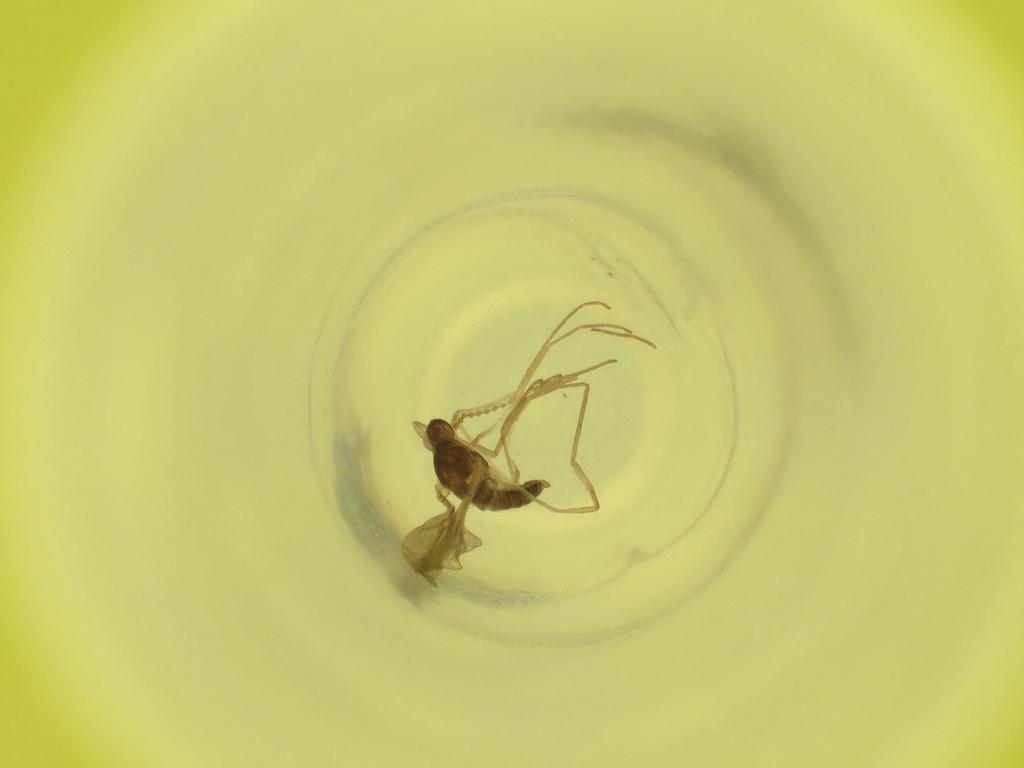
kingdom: Animalia
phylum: Arthropoda
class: Insecta
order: Diptera
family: Cecidomyiidae
